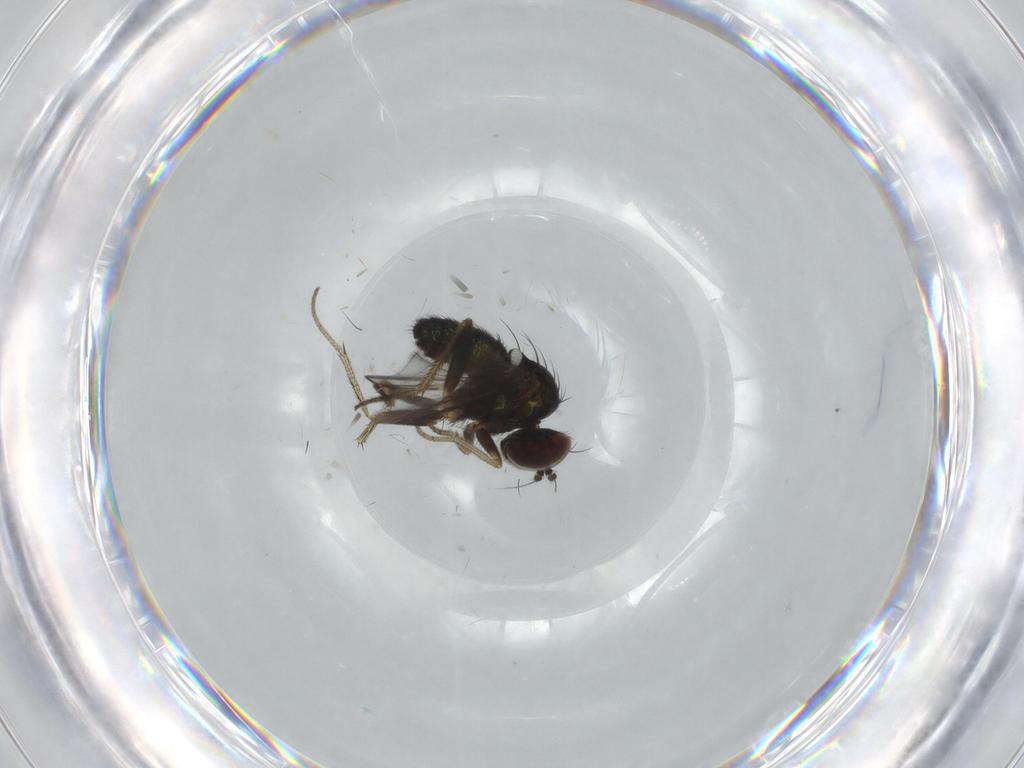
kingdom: Animalia
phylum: Arthropoda
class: Insecta
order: Diptera
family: Dolichopodidae
